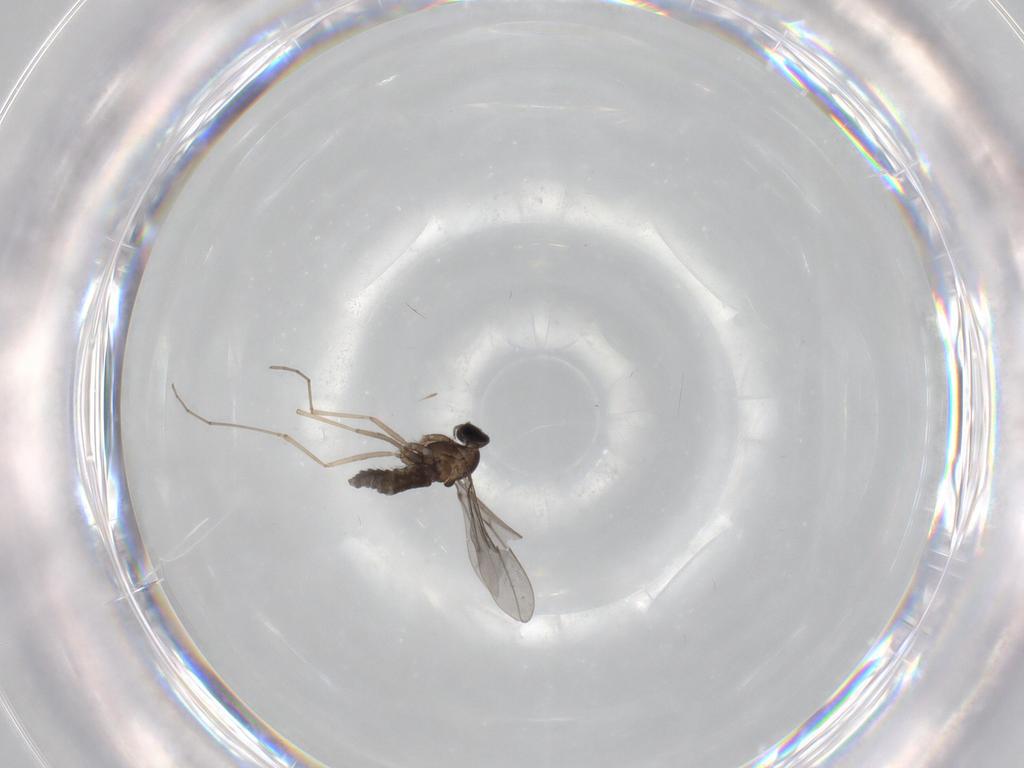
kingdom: Animalia
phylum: Arthropoda
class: Insecta
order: Diptera
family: Cecidomyiidae
